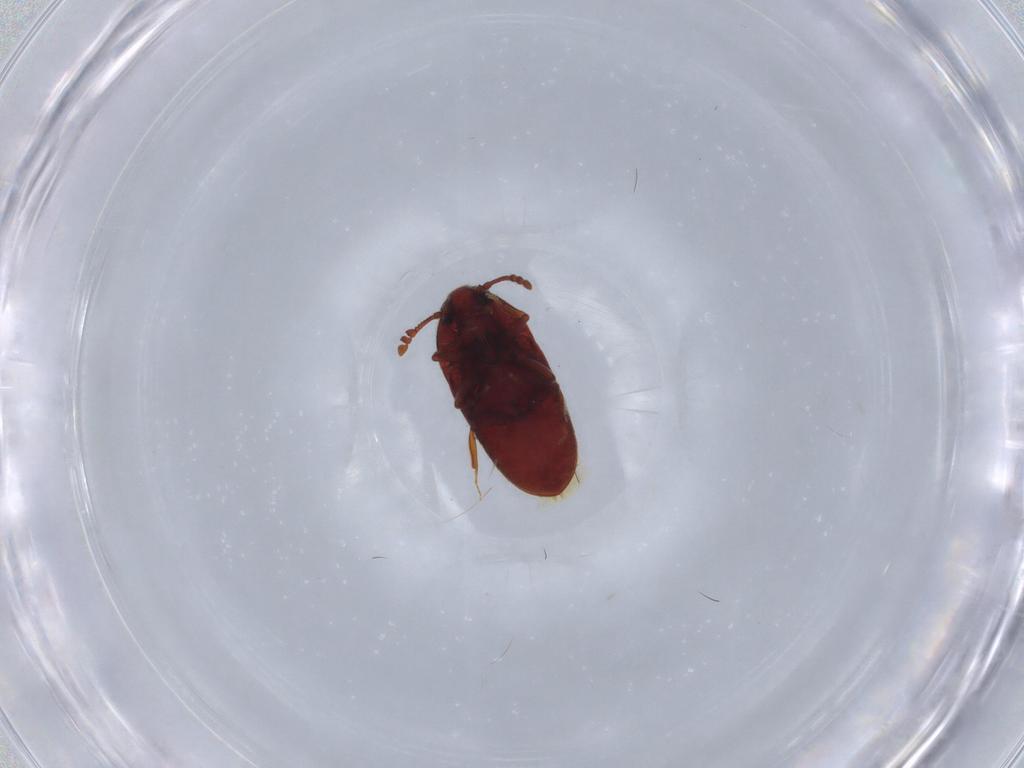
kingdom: Animalia
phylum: Arthropoda
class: Insecta
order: Coleoptera
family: Throscidae
